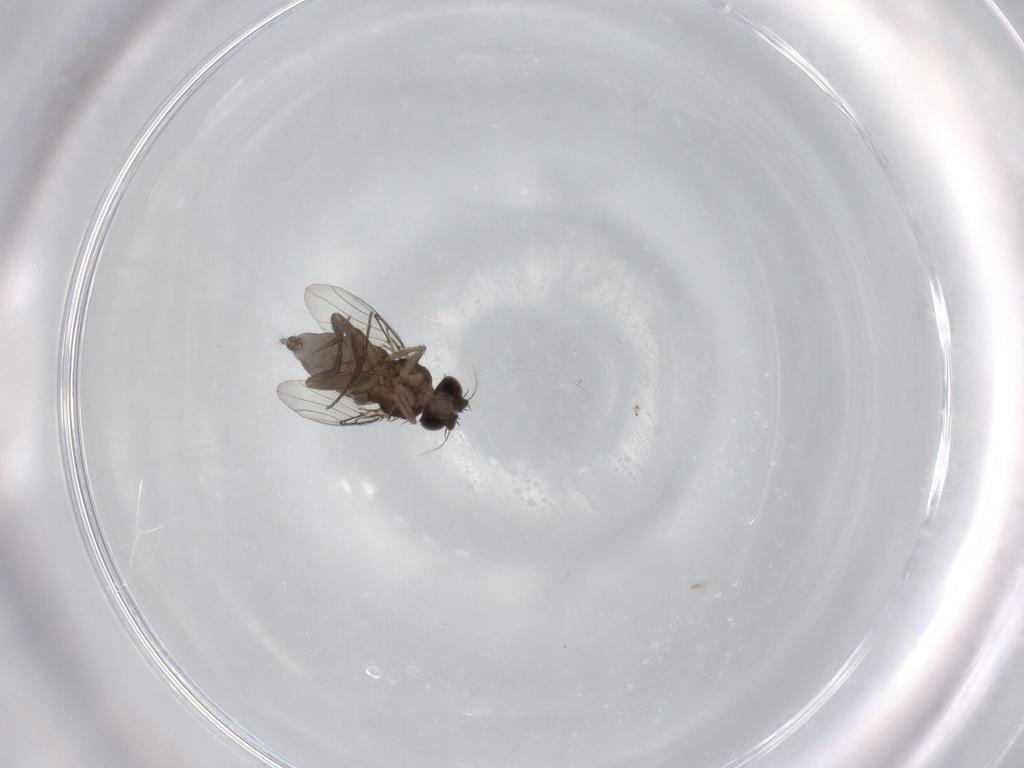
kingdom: Animalia
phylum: Arthropoda
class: Insecta
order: Diptera
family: Phoridae
